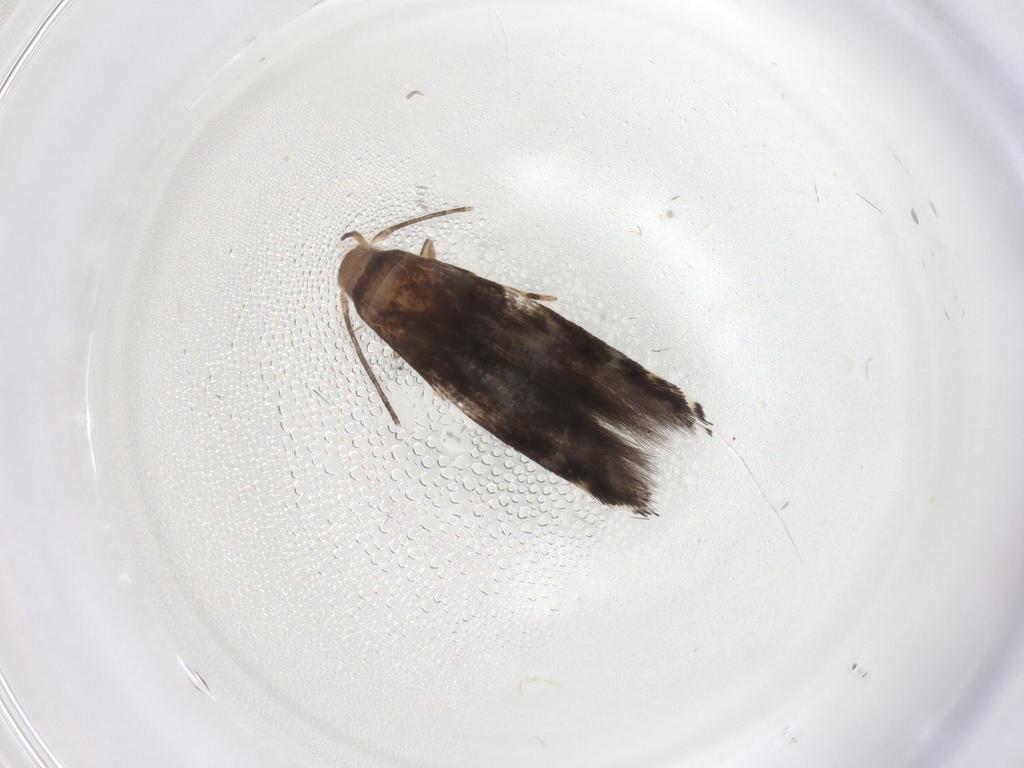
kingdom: Animalia
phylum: Arthropoda
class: Insecta
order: Lepidoptera
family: Momphidae
